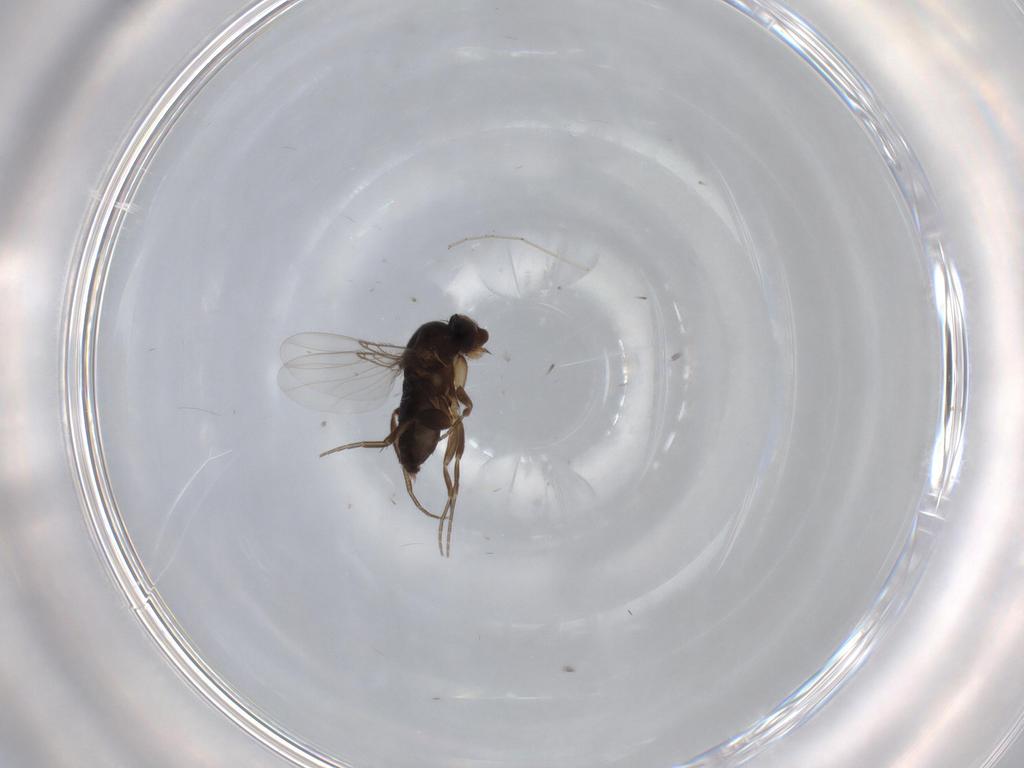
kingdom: Animalia
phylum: Arthropoda
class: Insecta
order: Diptera
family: Phoridae
